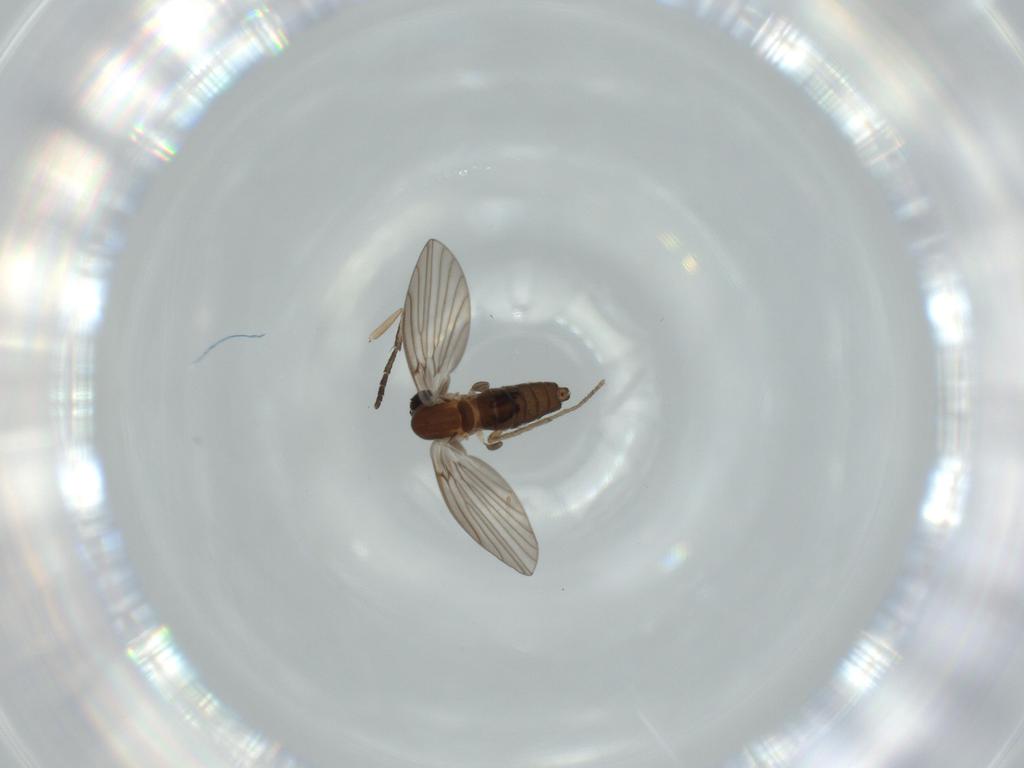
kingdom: Animalia
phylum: Arthropoda
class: Insecta
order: Diptera
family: Psychodidae
